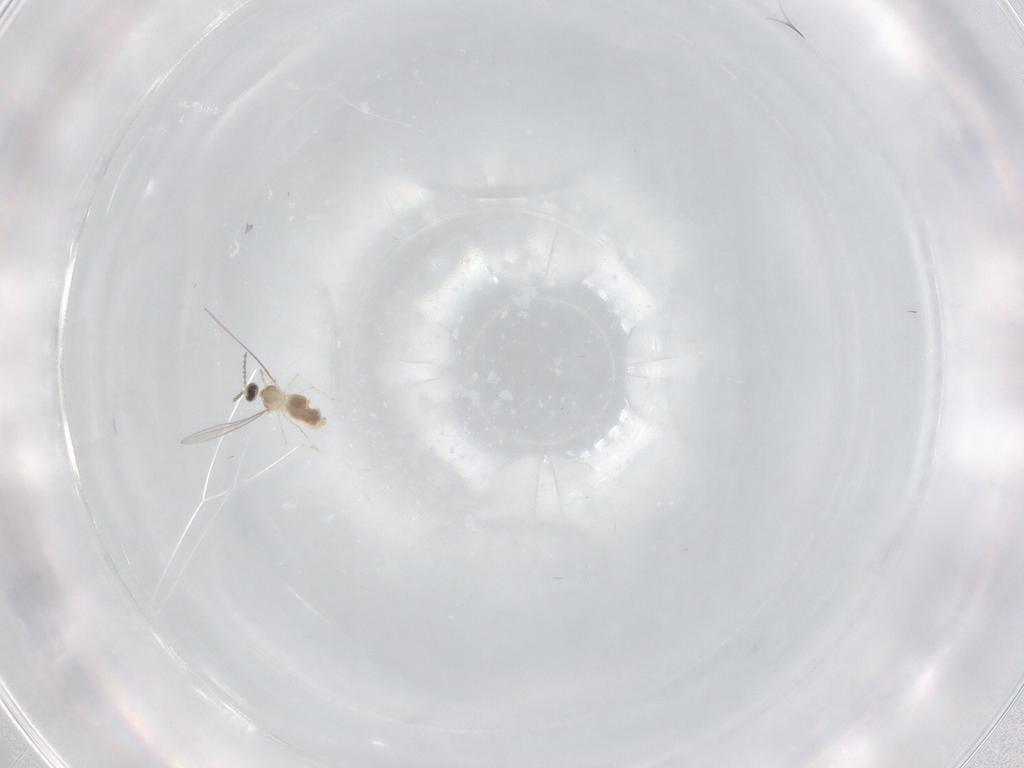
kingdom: Animalia
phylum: Arthropoda
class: Insecta
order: Diptera
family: Cecidomyiidae
